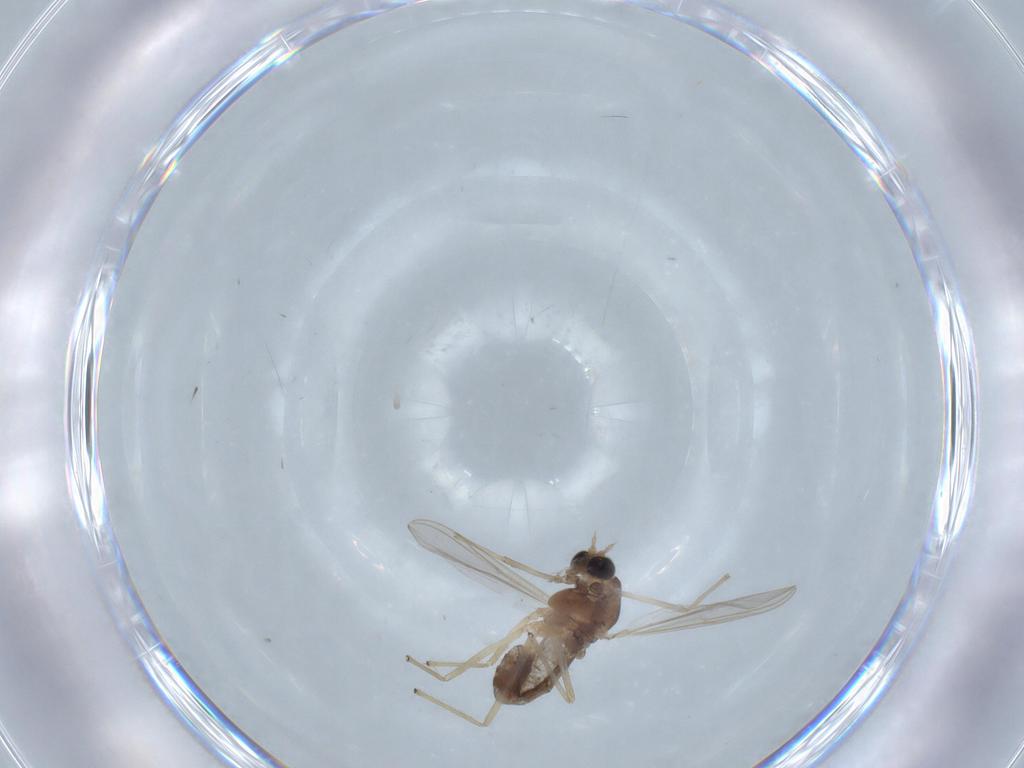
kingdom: Animalia
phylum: Arthropoda
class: Insecta
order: Diptera
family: Chironomidae
